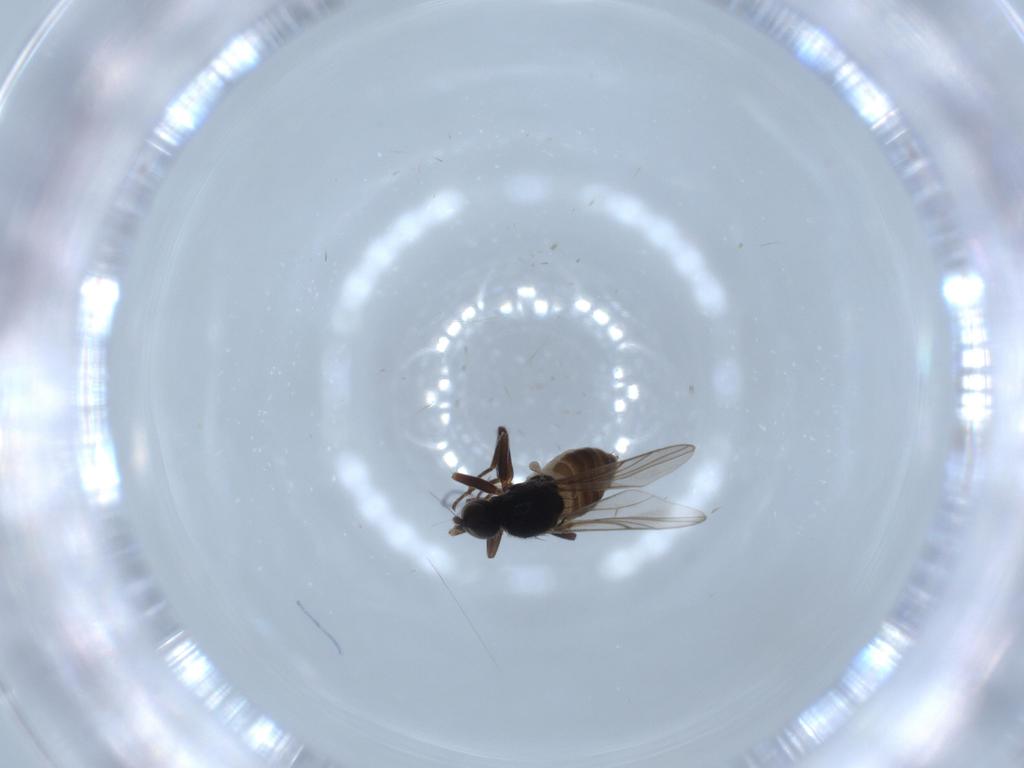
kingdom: Animalia
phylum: Arthropoda
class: Insecta
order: Diptera
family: Hybotidae
